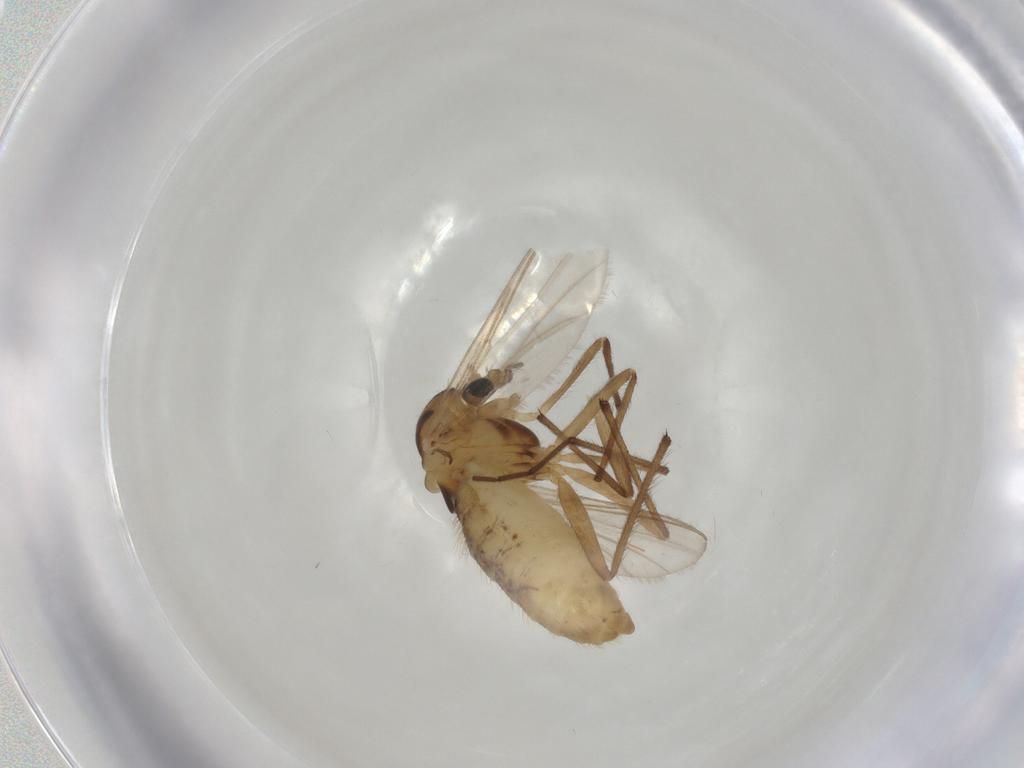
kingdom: Animalia
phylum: Arthropoda
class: Insecta
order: Diptera
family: Chironomidae
